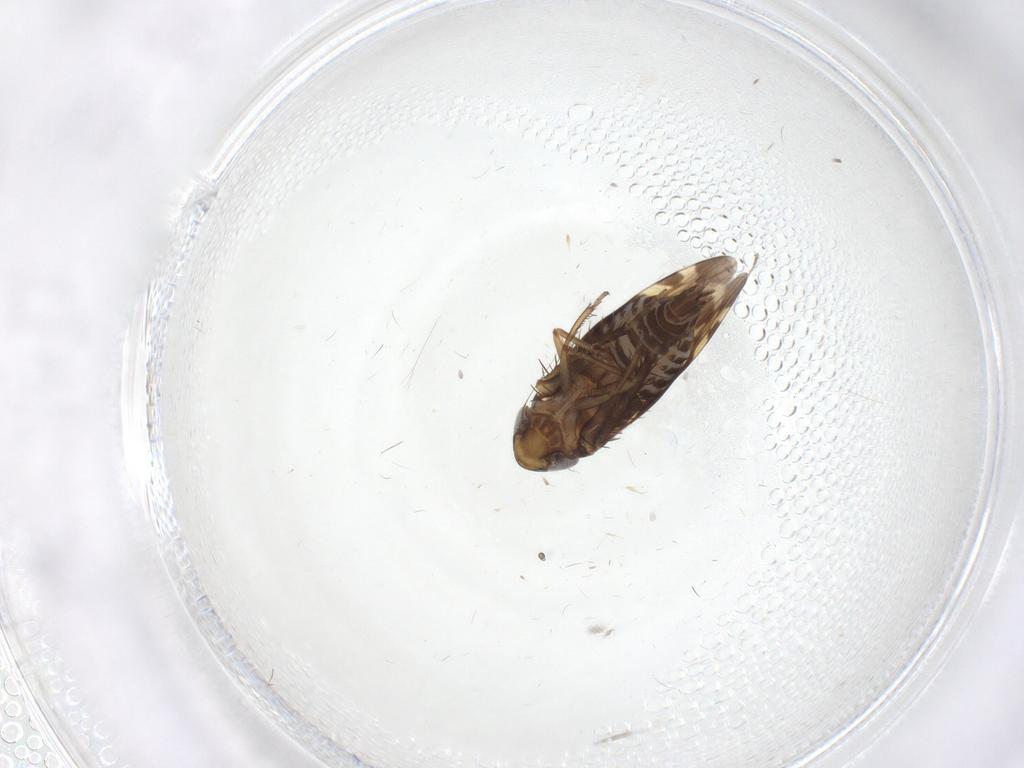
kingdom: Animalia
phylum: Arthropoda
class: Insecta
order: Hemiptera
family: Cicadellidae
